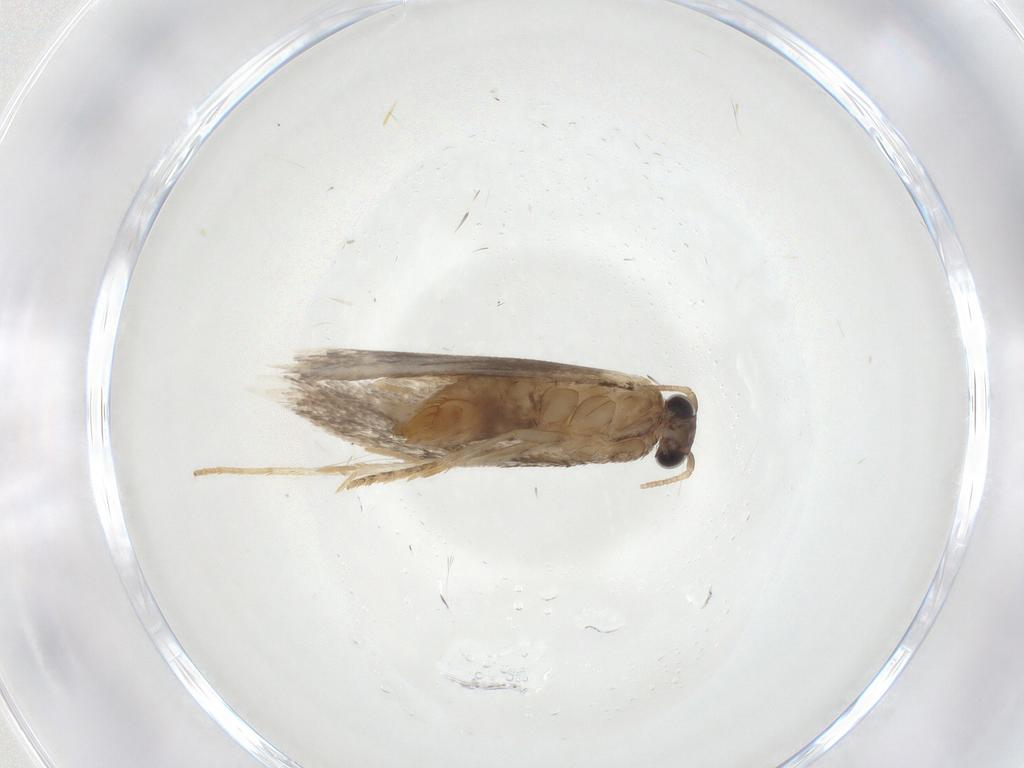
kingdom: Animalia
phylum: Arthropoda
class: Insecta
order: Lepidoptera
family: Tineidae
